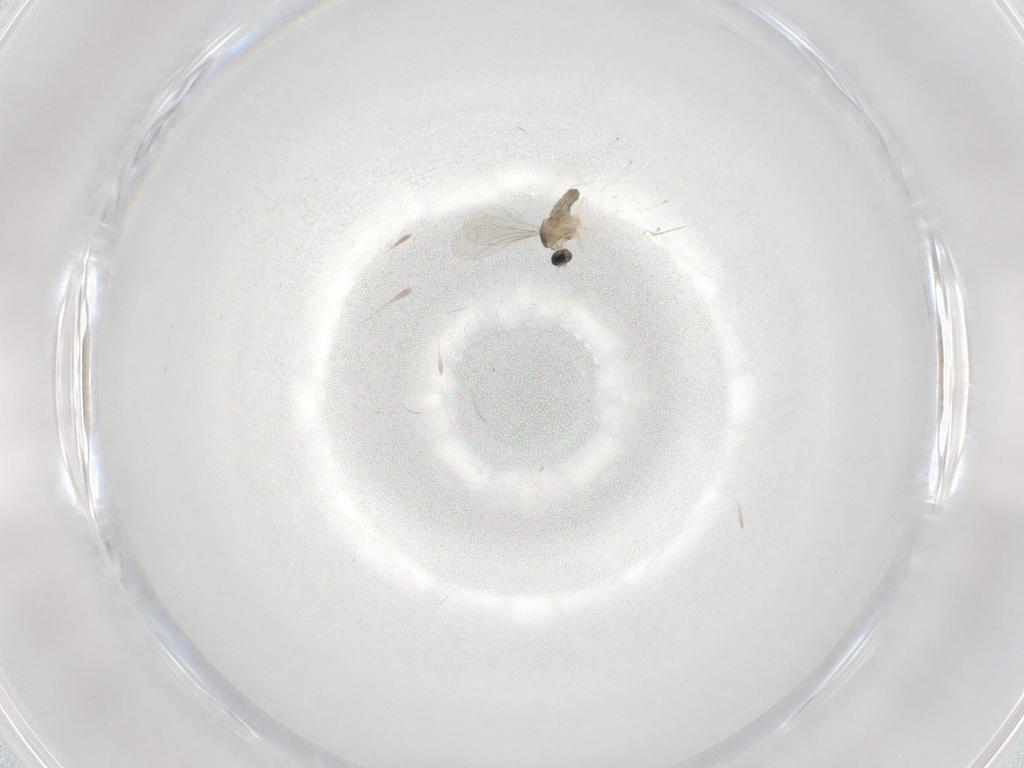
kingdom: Animalia
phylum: Arthropoda
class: Insecta
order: Diptera
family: Cecidomyiidae
